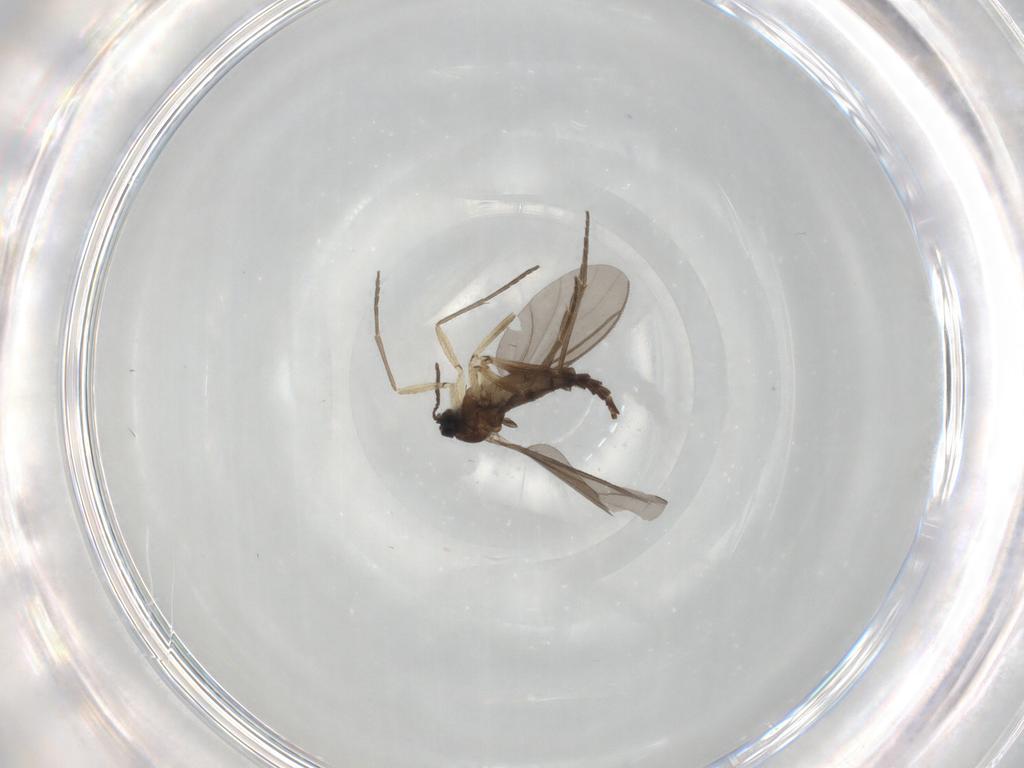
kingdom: Animalia
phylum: Arthropoda
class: Insecta
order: Diptera
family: Sciaridae
